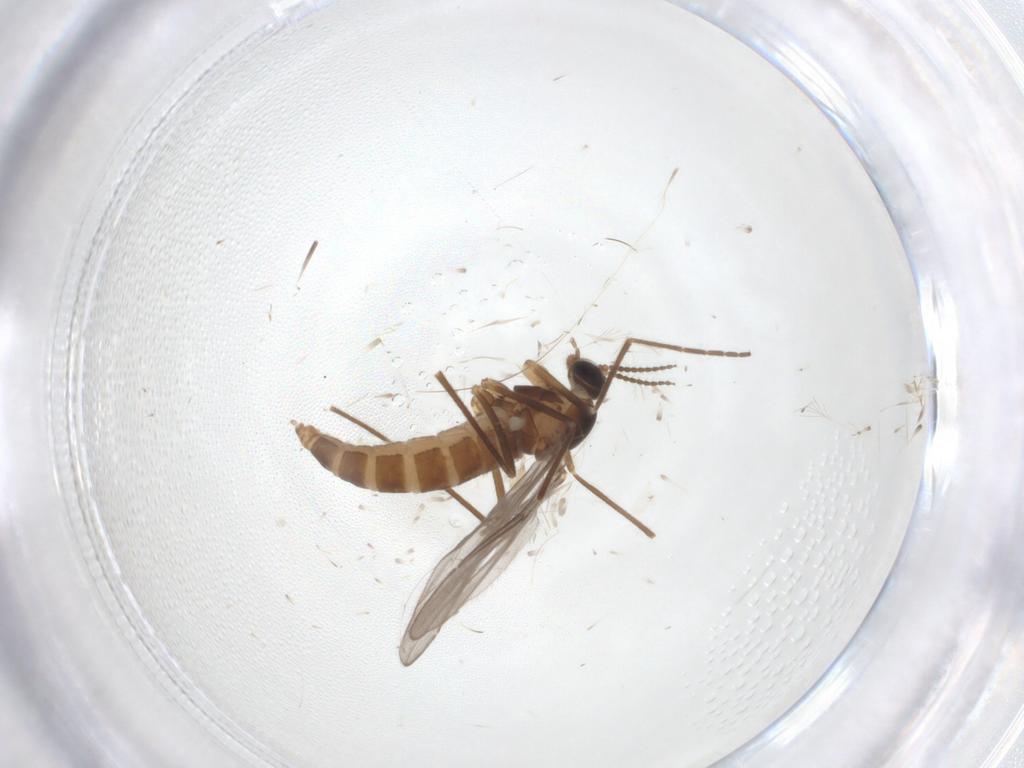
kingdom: Animalia
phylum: Arthropoda
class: Insecta
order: Diptera
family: Cecidomyiidae
